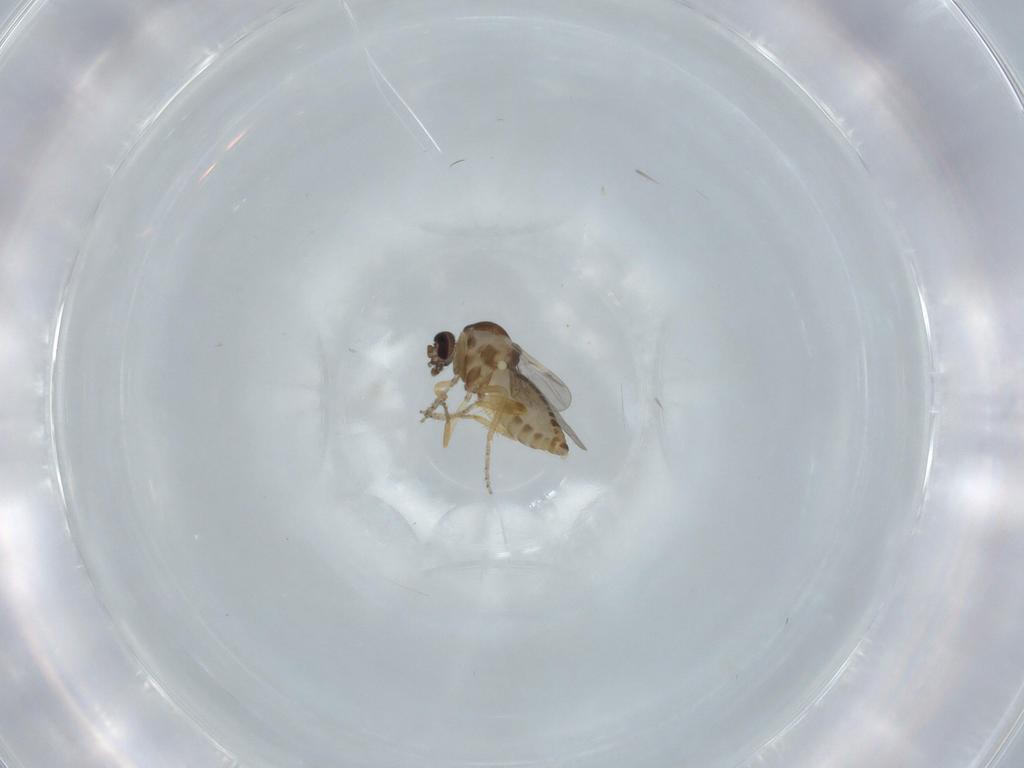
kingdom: Animalia
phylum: Arthropoda
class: Insecta
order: Diptera
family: Ceratopogonidae
